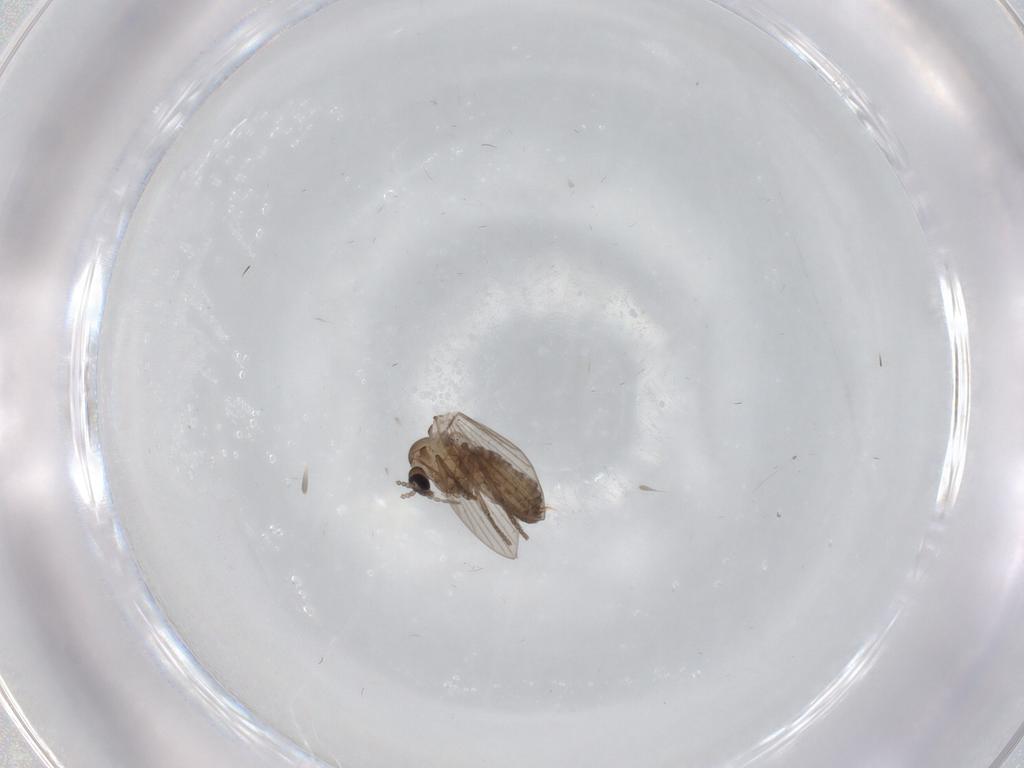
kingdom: Animalia
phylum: Arthropoda
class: Insecta
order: Diptera
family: Psychodidae
